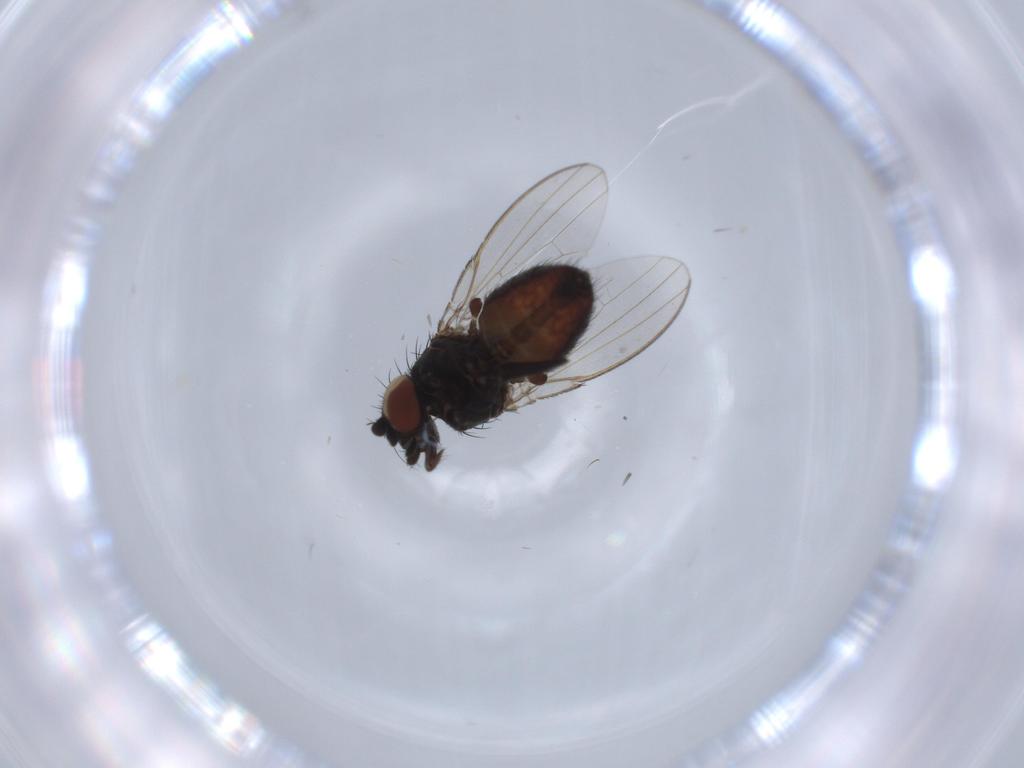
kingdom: Animalia
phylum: Arthropoda
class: Insecta
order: Diptera
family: Milichiidae
